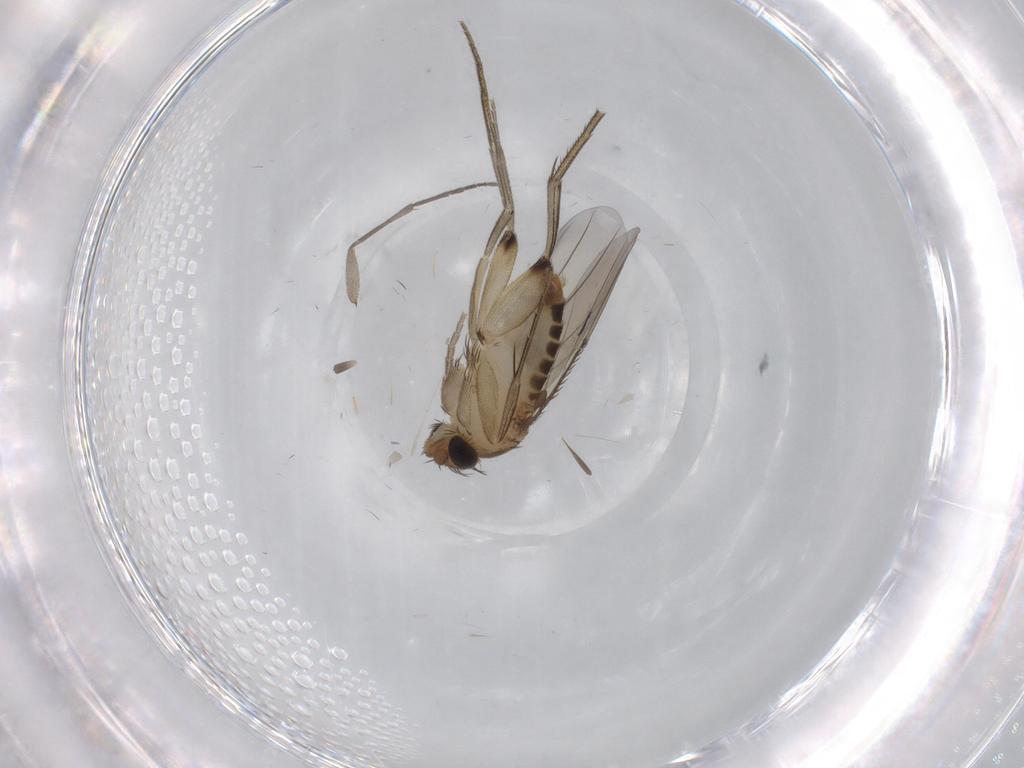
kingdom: Animalia
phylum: Arthropoda
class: Insecta
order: Diptera
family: Phoridae
